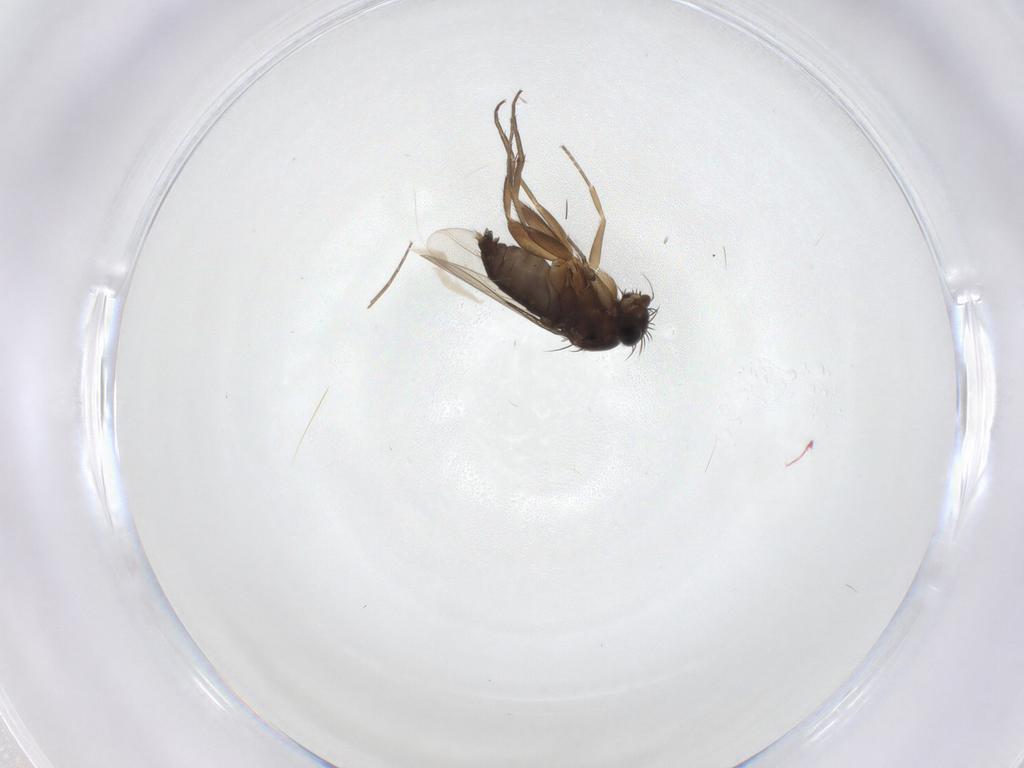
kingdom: Animalia
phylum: Arthropoda
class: Insecta
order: Diptera
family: Phoridae
